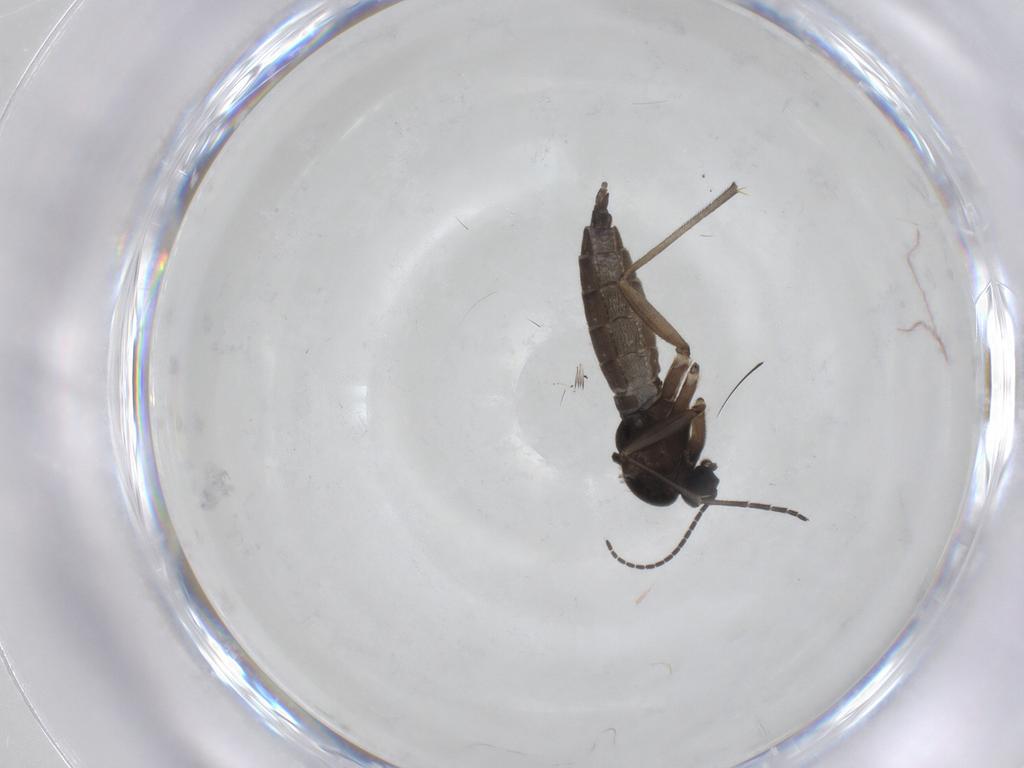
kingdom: Animalia
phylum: Arthropoda
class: Insecta
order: Diptera
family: Sciaridae
